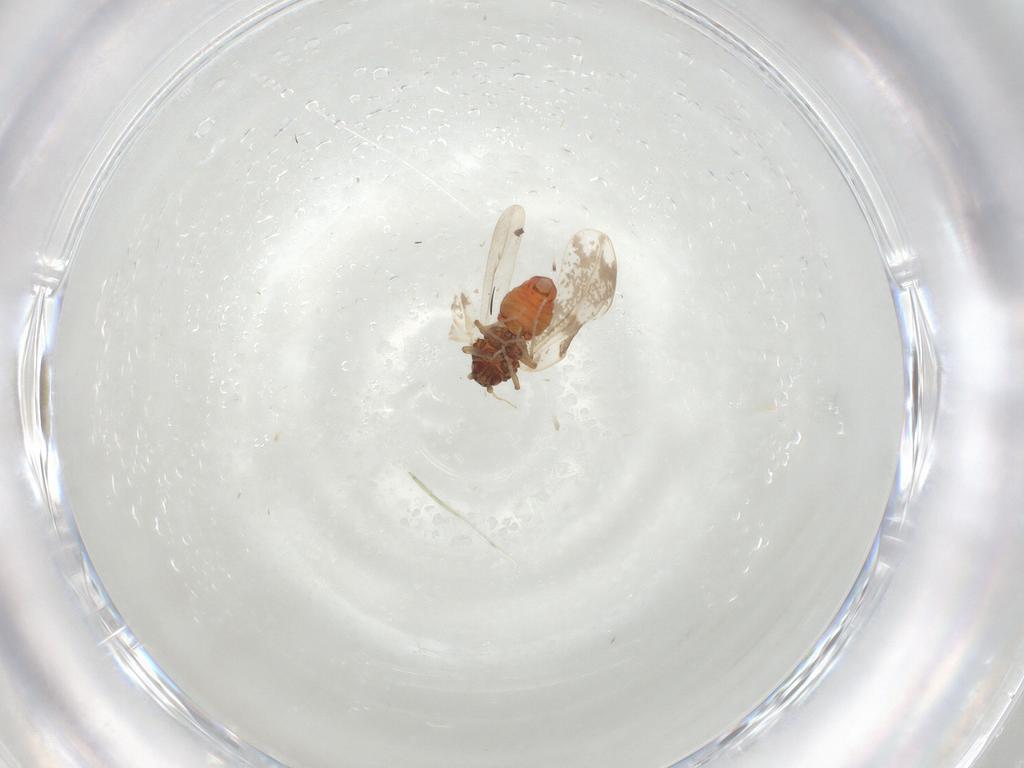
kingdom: Animalia
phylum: Arthropoda
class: Insecta
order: Hemiptera
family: Aleyrodidae
